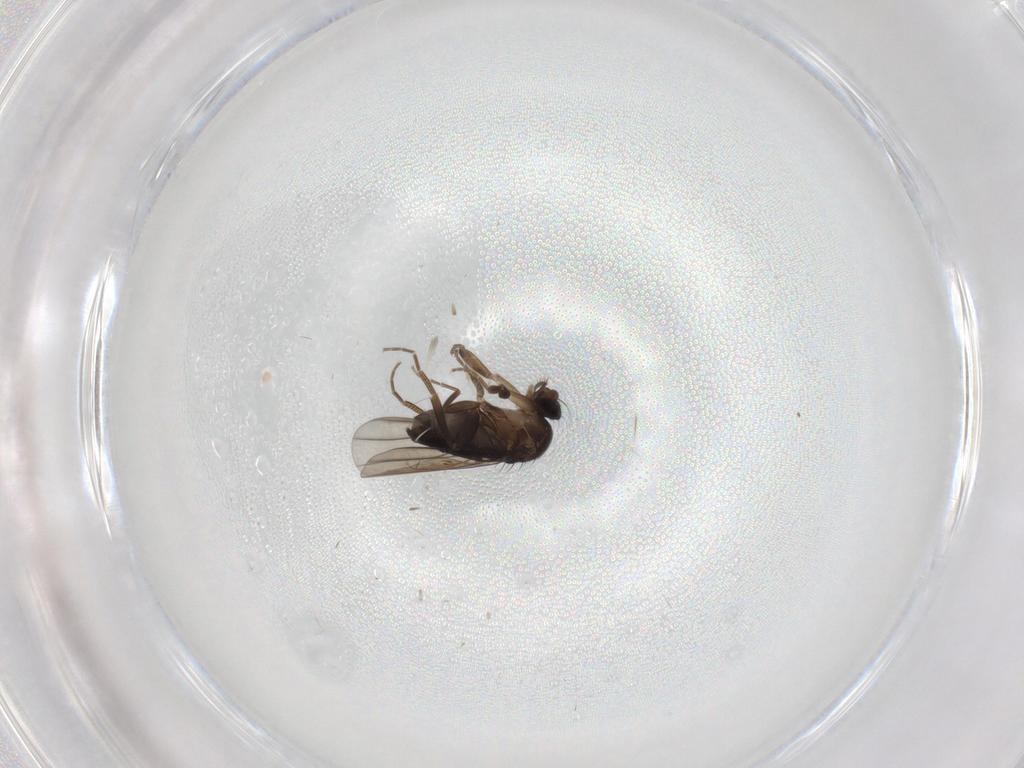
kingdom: Animalia
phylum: Arthropoda
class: Insecta
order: Diptera
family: Phoridae
